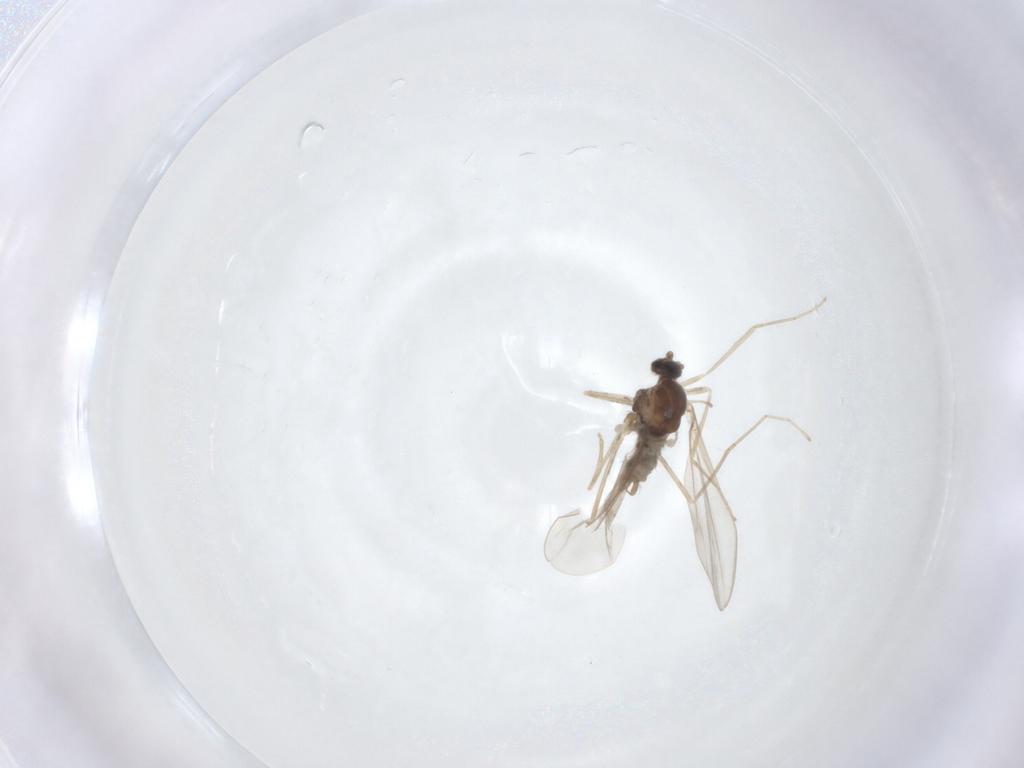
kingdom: Animalia
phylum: Arthropoda
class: Insecta
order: Diptera
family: Cecidomyiidae
